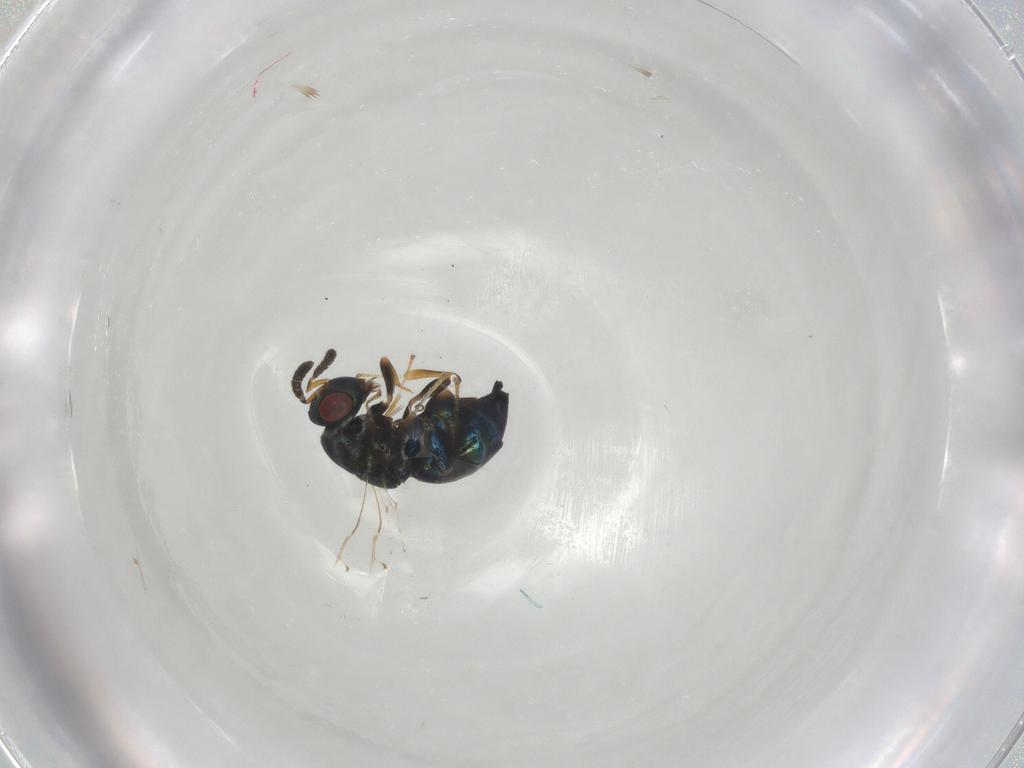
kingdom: Animalia
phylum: Arthropoda
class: Insecta
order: Hymenoptera
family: Pteromalidae
